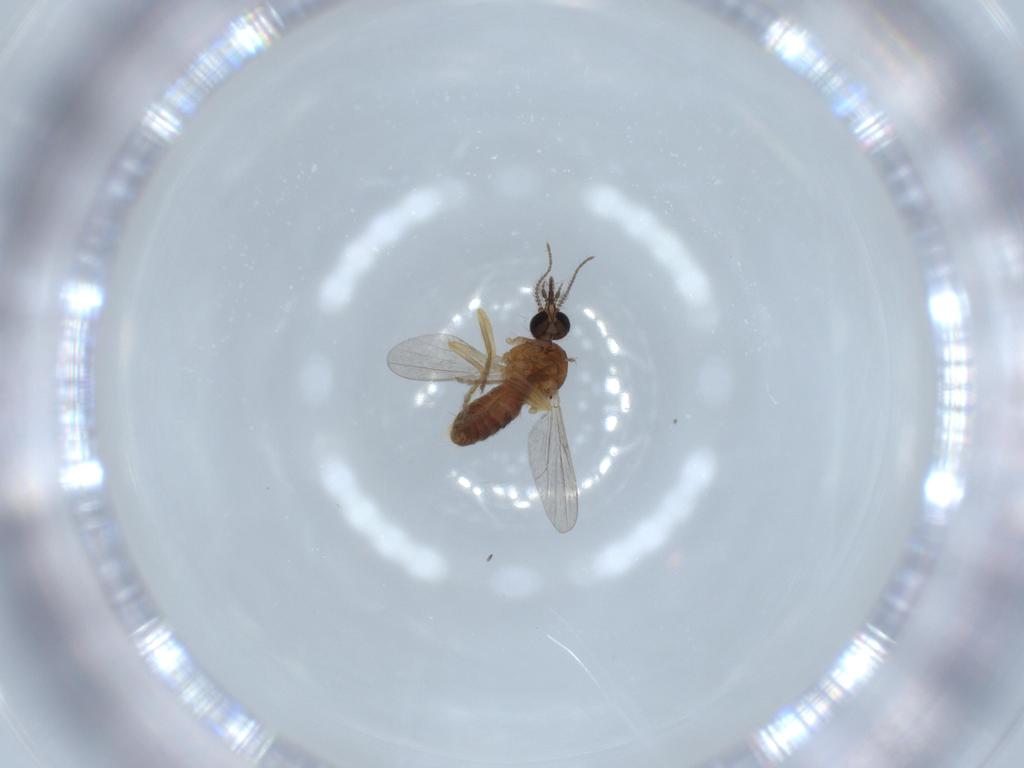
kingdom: Animalia
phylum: Arthropoda
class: Insecta
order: Diptera
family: Ceratopogonidae
